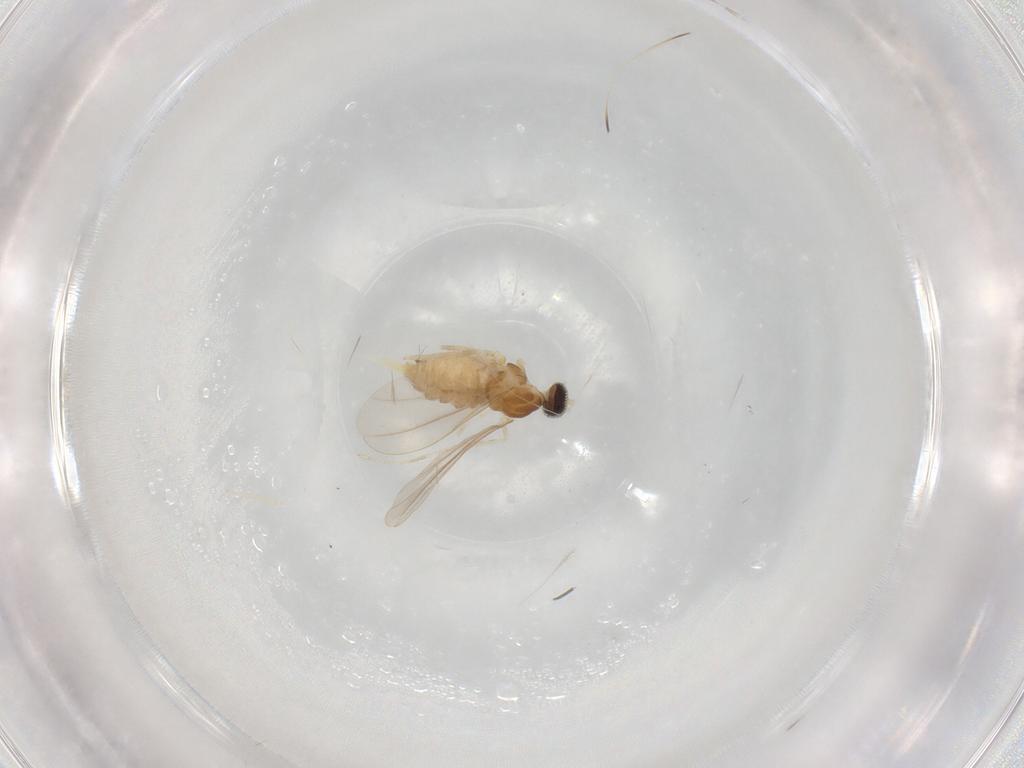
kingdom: Animalia
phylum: Arthropoda
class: Insecta
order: Diptera
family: Cecidomyiidae
